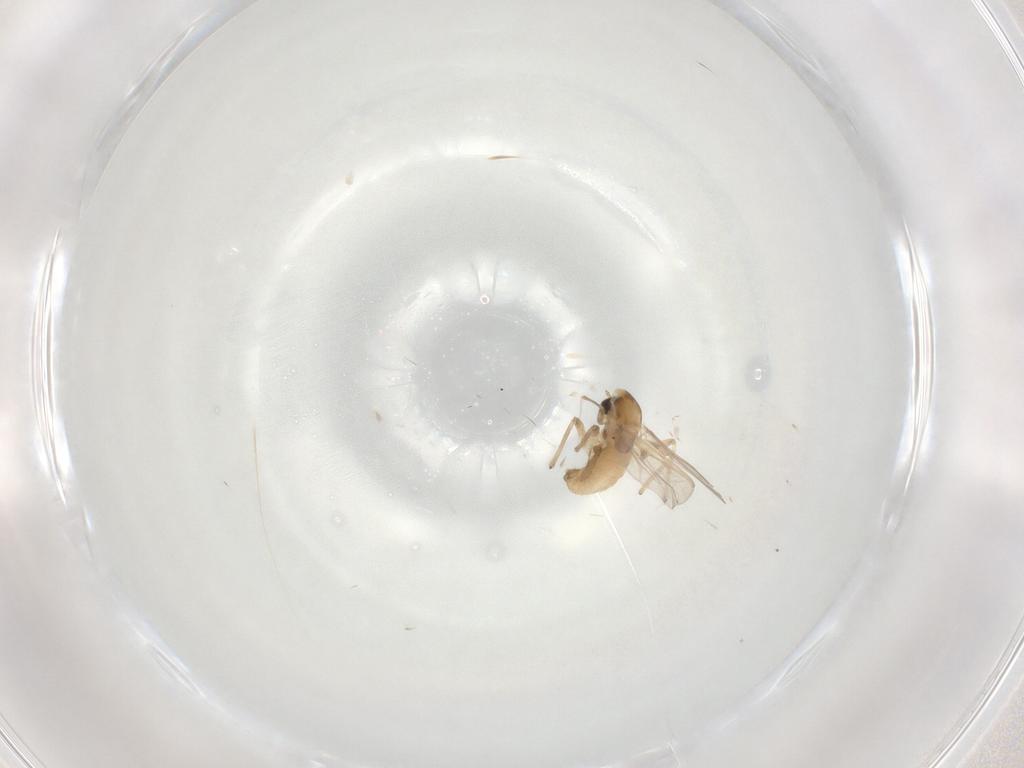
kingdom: Animalia
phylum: Arthropoda
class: Insecta
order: Diptera
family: Chironomidae
